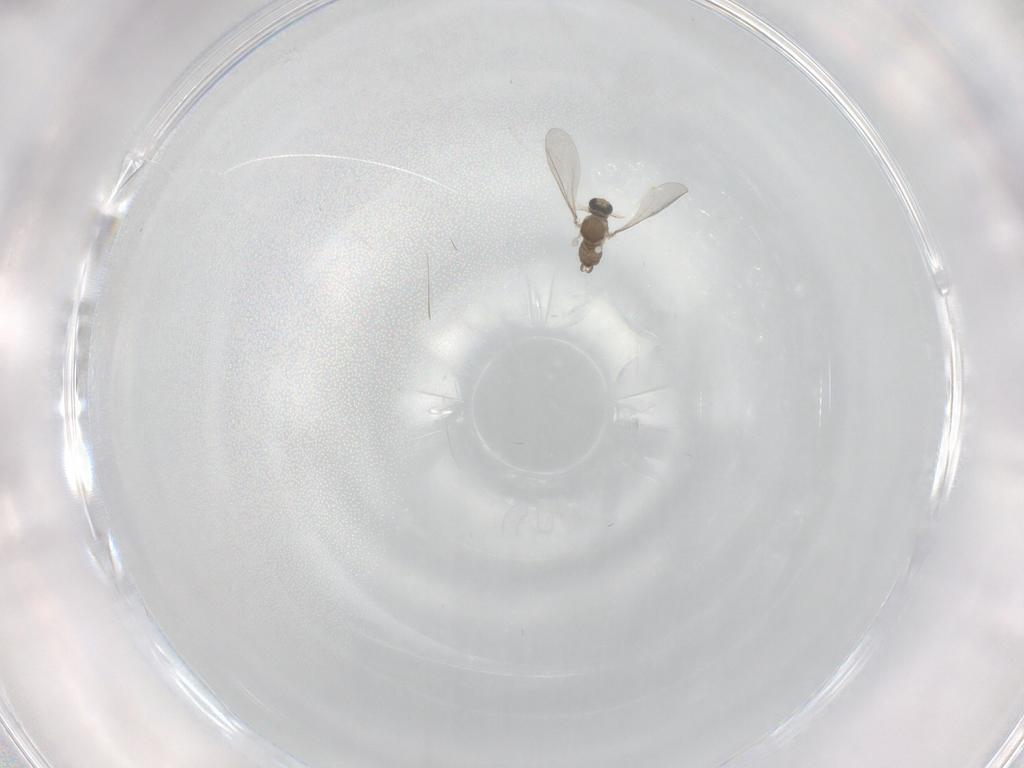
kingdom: Animalia
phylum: Arthropoda
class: Insecta
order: Diptera
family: Cecidomyiidae
